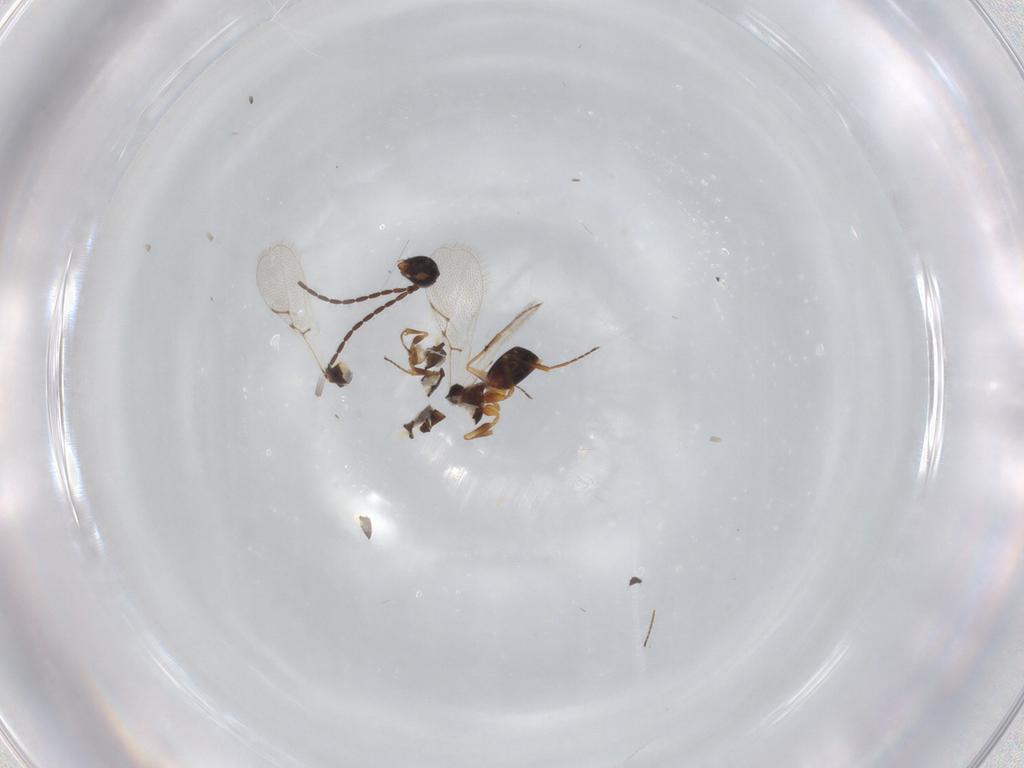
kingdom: Animalia
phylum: Arthropoda
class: Insecta
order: Hymenoptera
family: Figitidae
